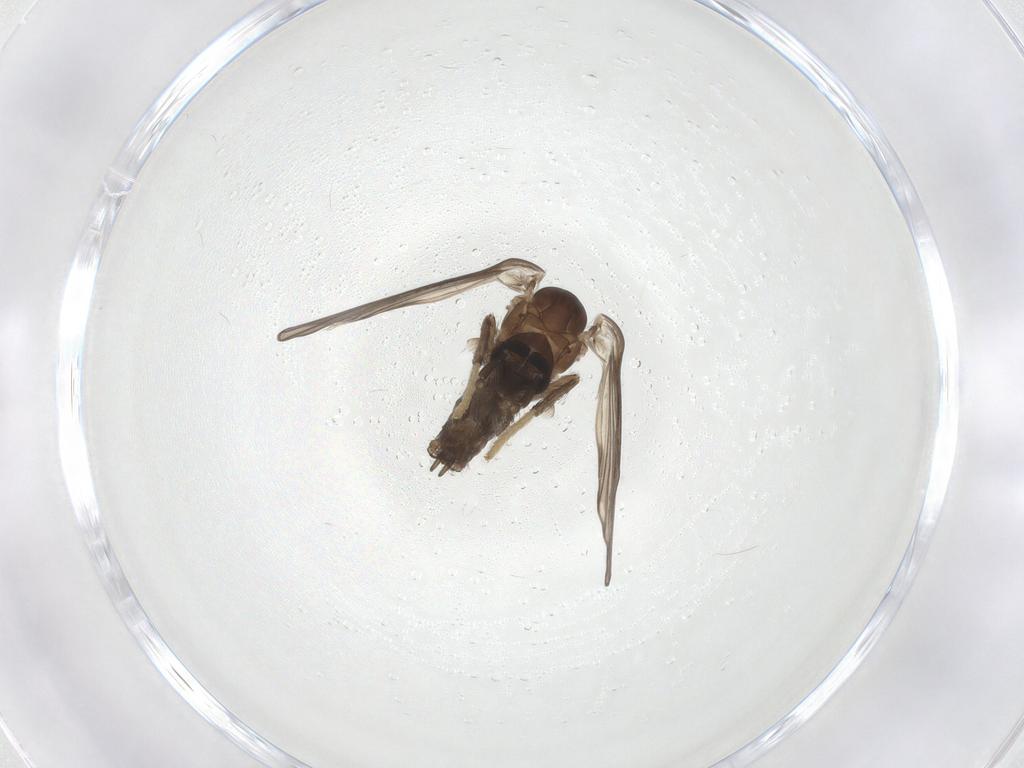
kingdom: Animalia
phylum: Arthropoda
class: Insecta
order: Diptera
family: Psychodidae
